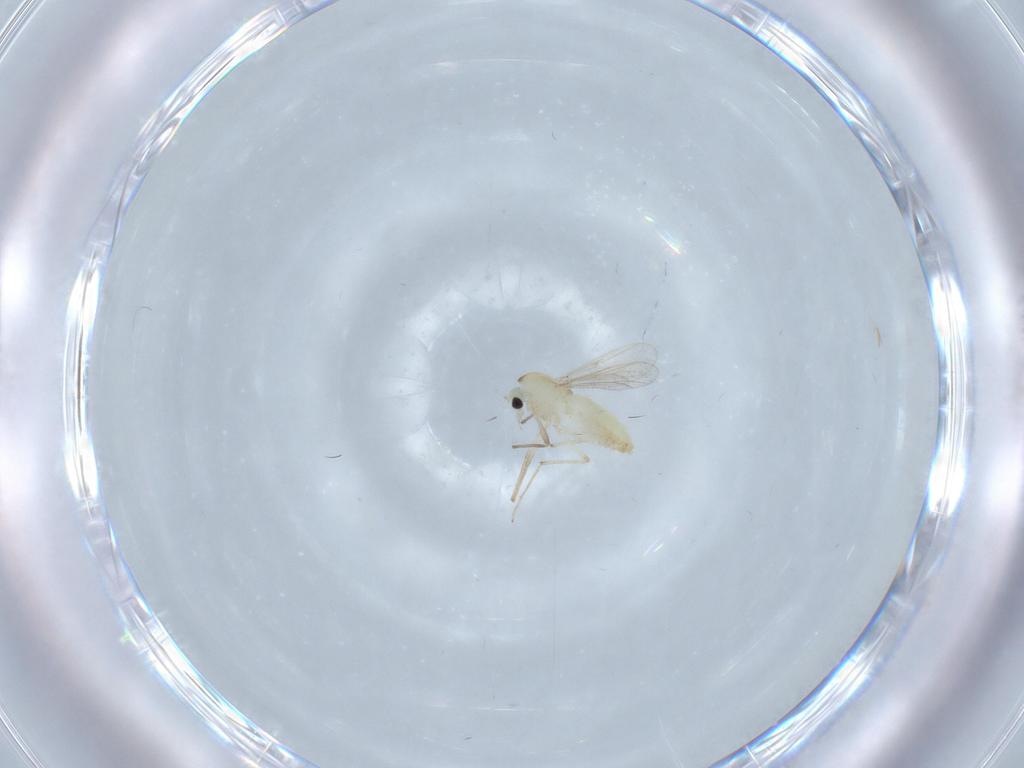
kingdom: Animalia
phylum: Arthropoda
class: Insecta
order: Diptera
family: Chironomidae
